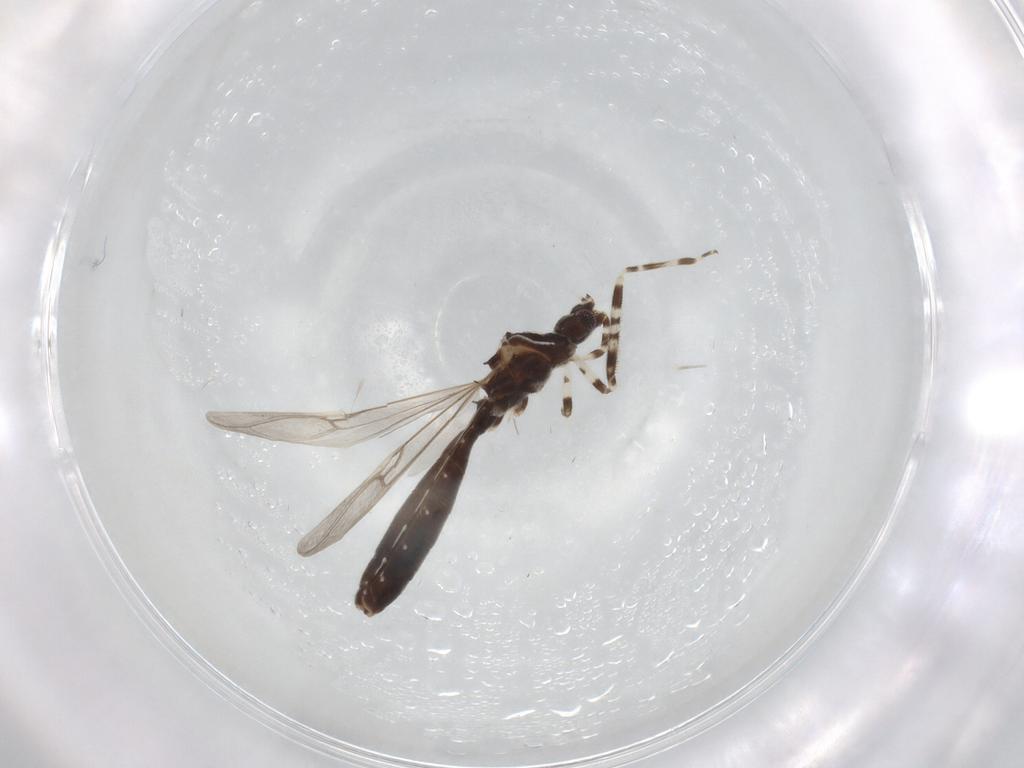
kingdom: Animalia
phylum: Arthropoda
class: Insecta
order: Hemiptera
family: Reduviidae
